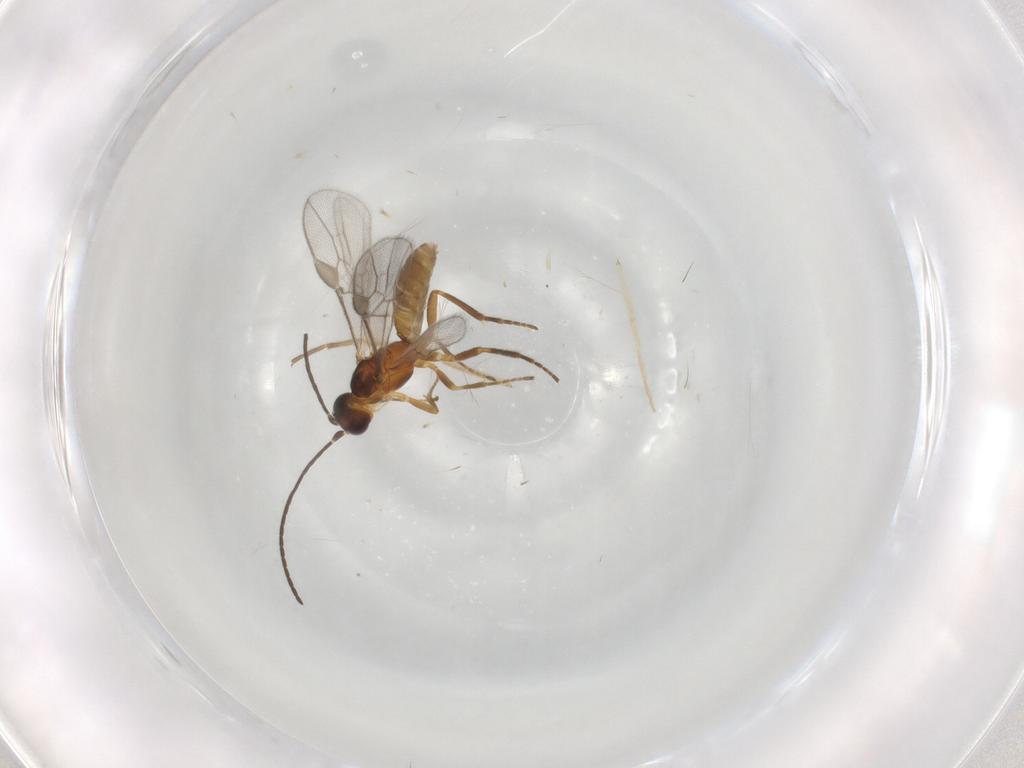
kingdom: Animalia
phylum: Arthropoda
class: Insecta
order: Hymenoptera
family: Braconidae
